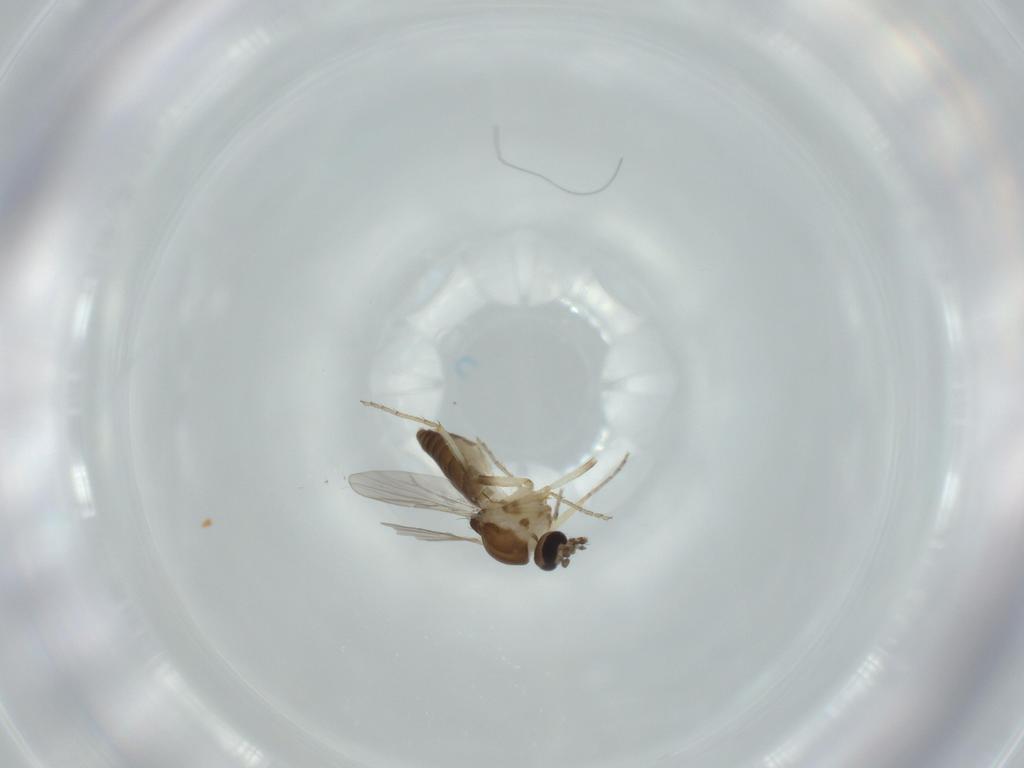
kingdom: Animalia
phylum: Arthropoda
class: Insecta
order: Diptera
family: Ceratopogonidae
